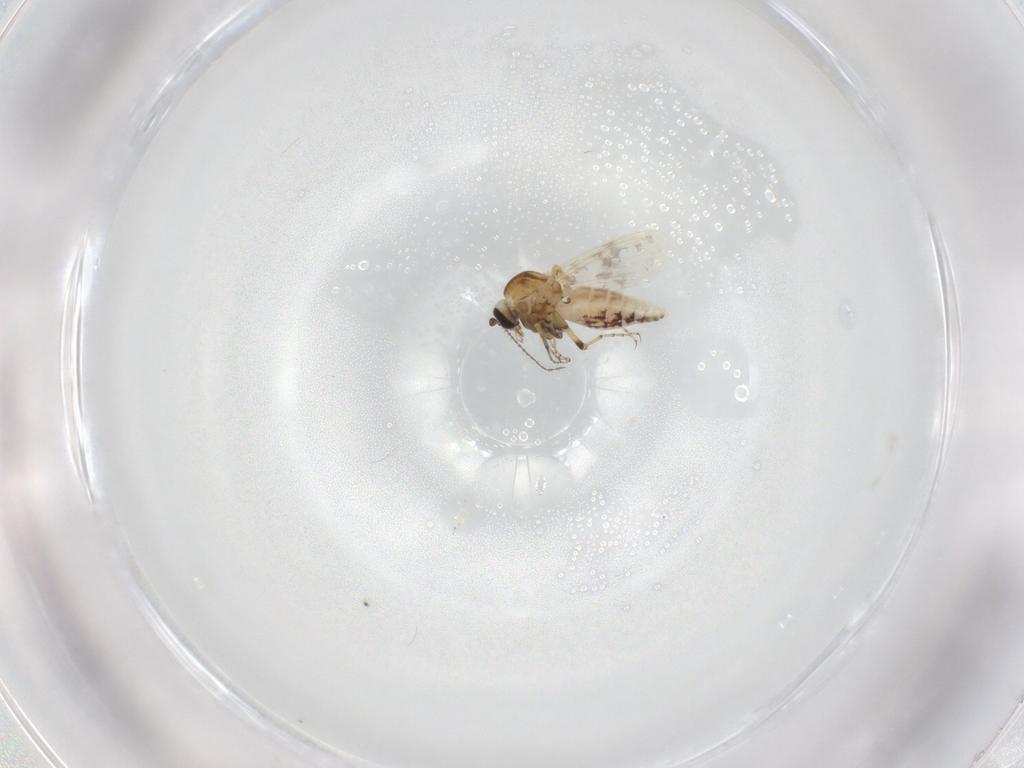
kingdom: Animalia
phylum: Arthropoda
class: Insecta
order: Diptera
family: Ceratopogonidae
